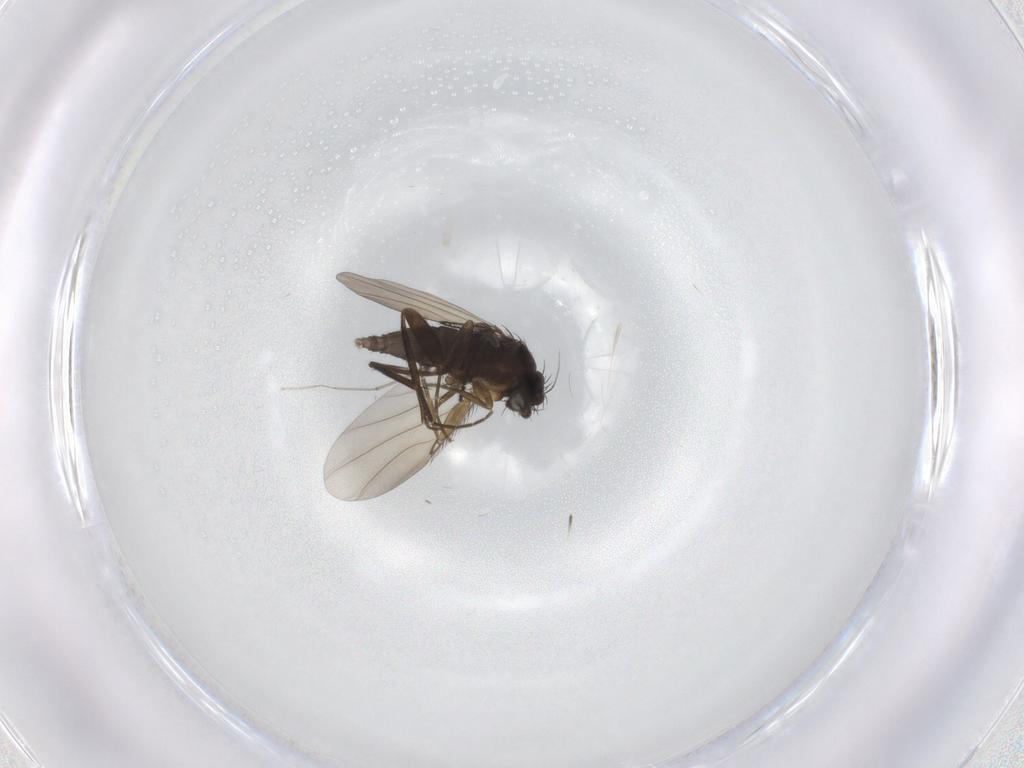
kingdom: Animalia
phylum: Arthropoda
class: Insecta
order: Diptera
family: Phoridae
